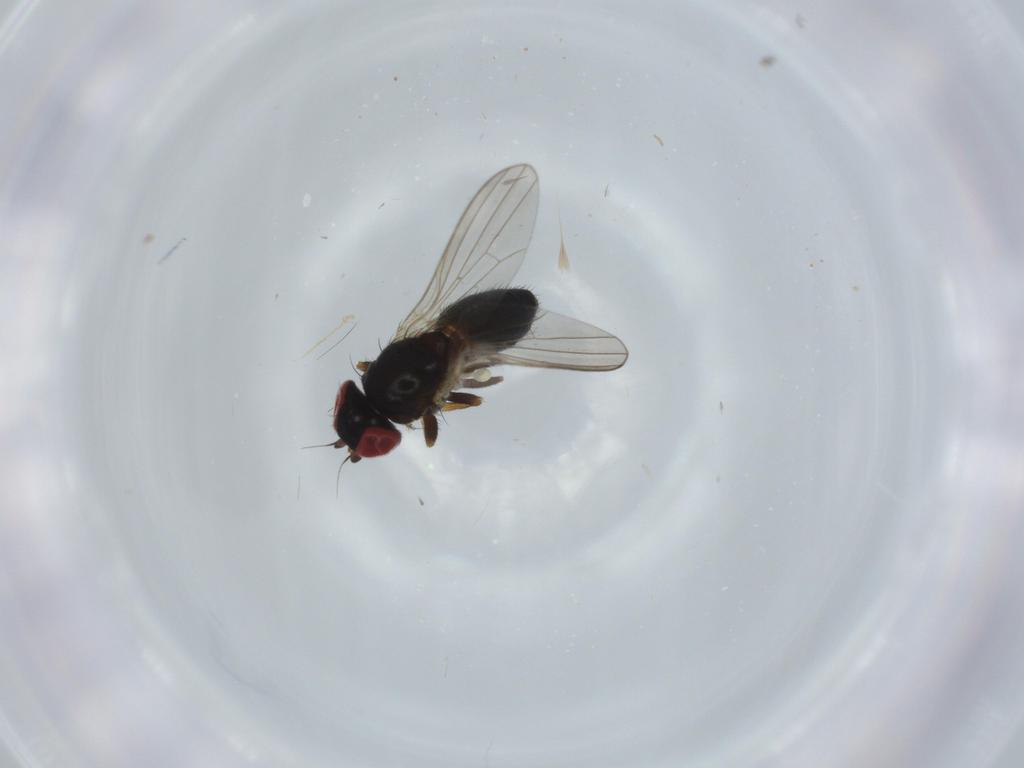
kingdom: Animalia
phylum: Arthropoda
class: Insecta
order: Diptera
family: Chamaemyiidae
